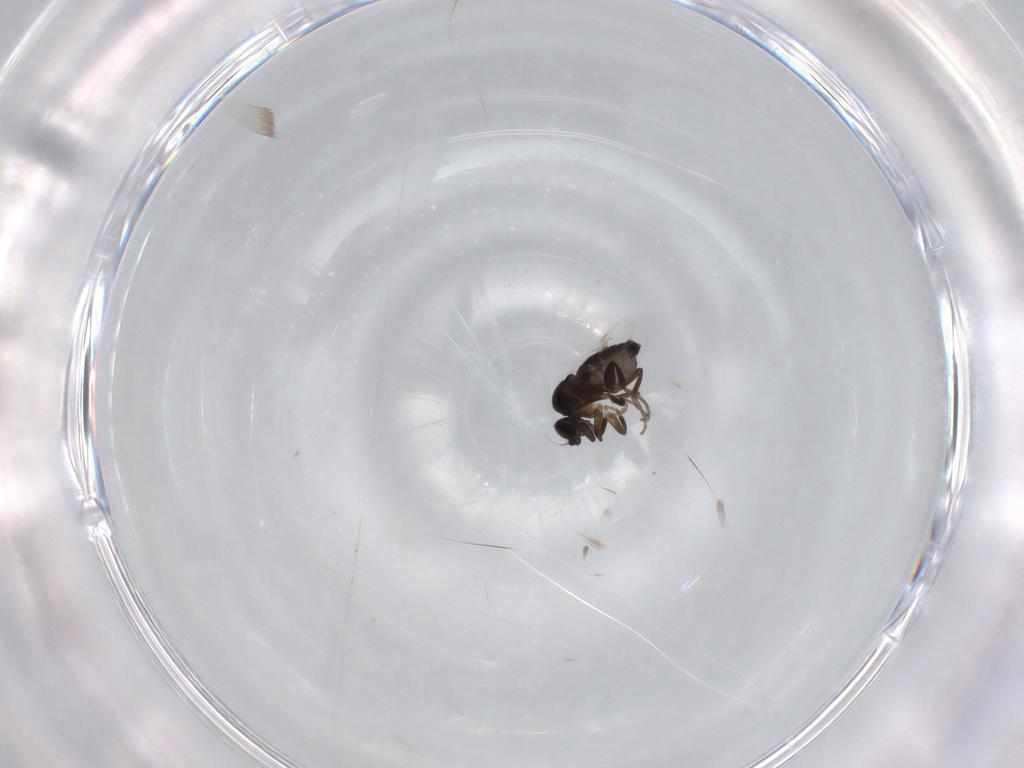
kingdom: Animalia
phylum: Arthropoda
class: Insecta
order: Diptera
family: Phoridae
